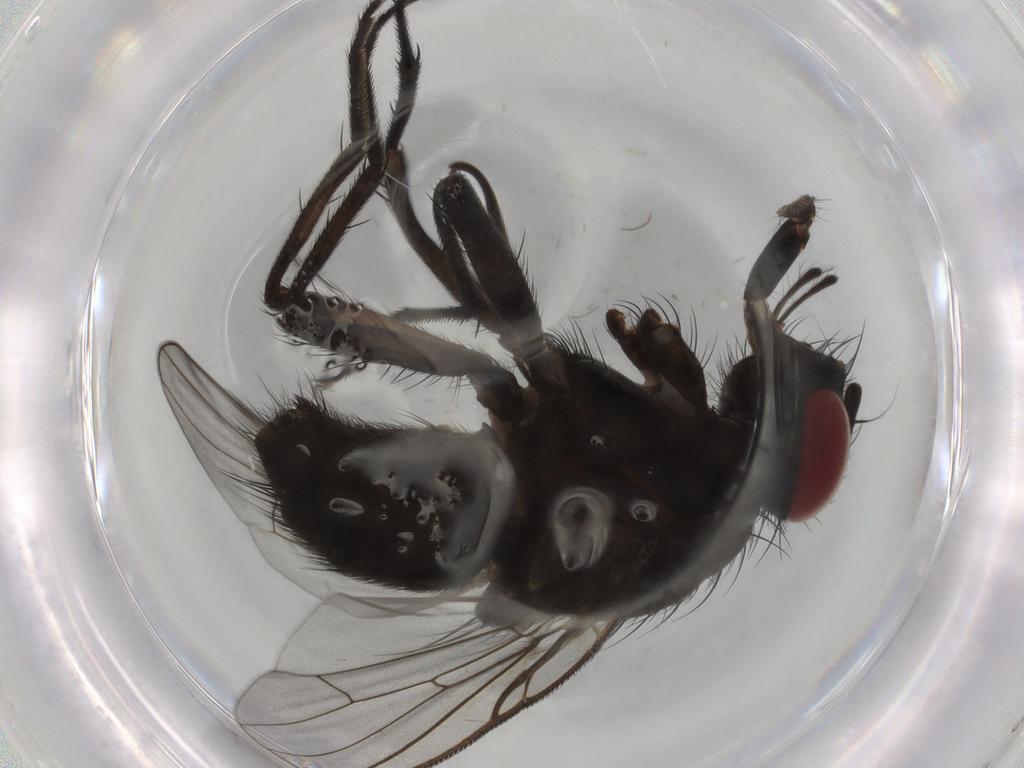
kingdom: Animalia
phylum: Arthropoda
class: Insecta
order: Diptera
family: Muscidae
